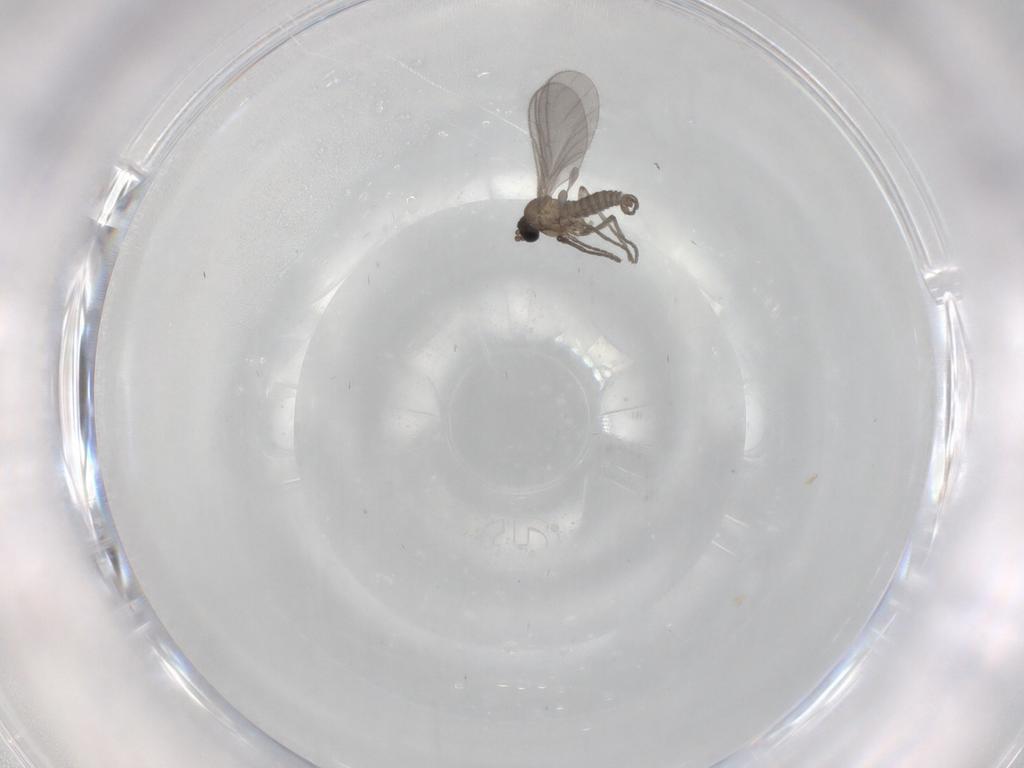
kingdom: Animalia
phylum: Arthropoda
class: Insecta
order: Diptera
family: Sciaridae
